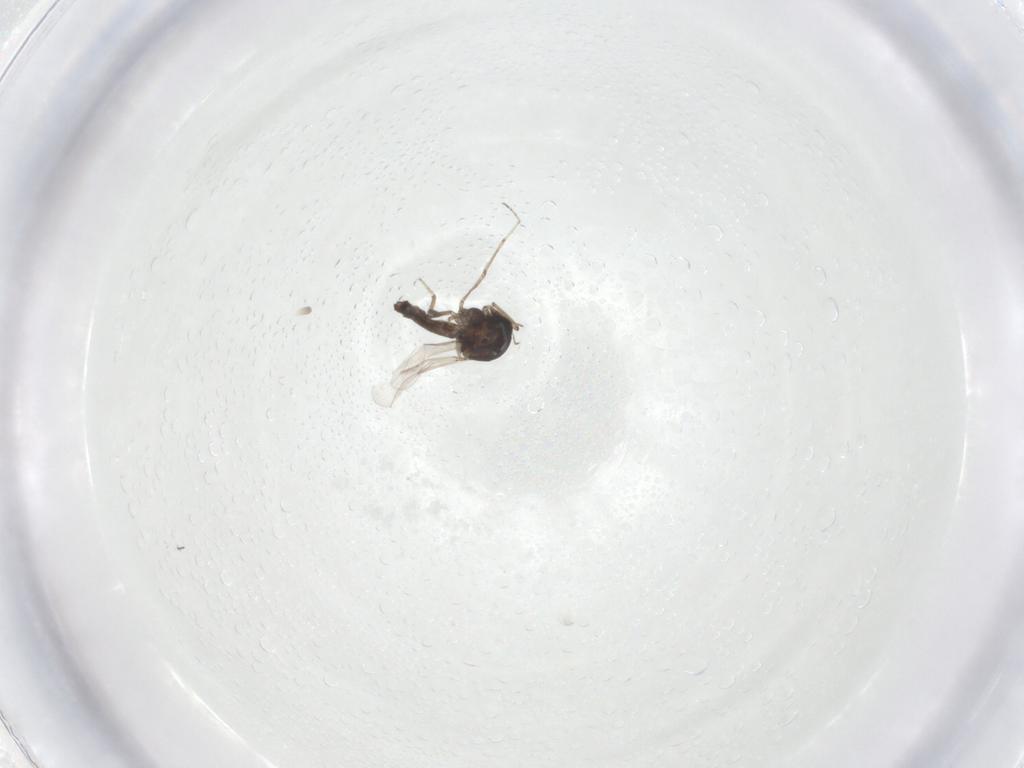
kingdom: Animalia
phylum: Arthropoda
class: Insecta
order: Diptera
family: Ceratopogonidae
